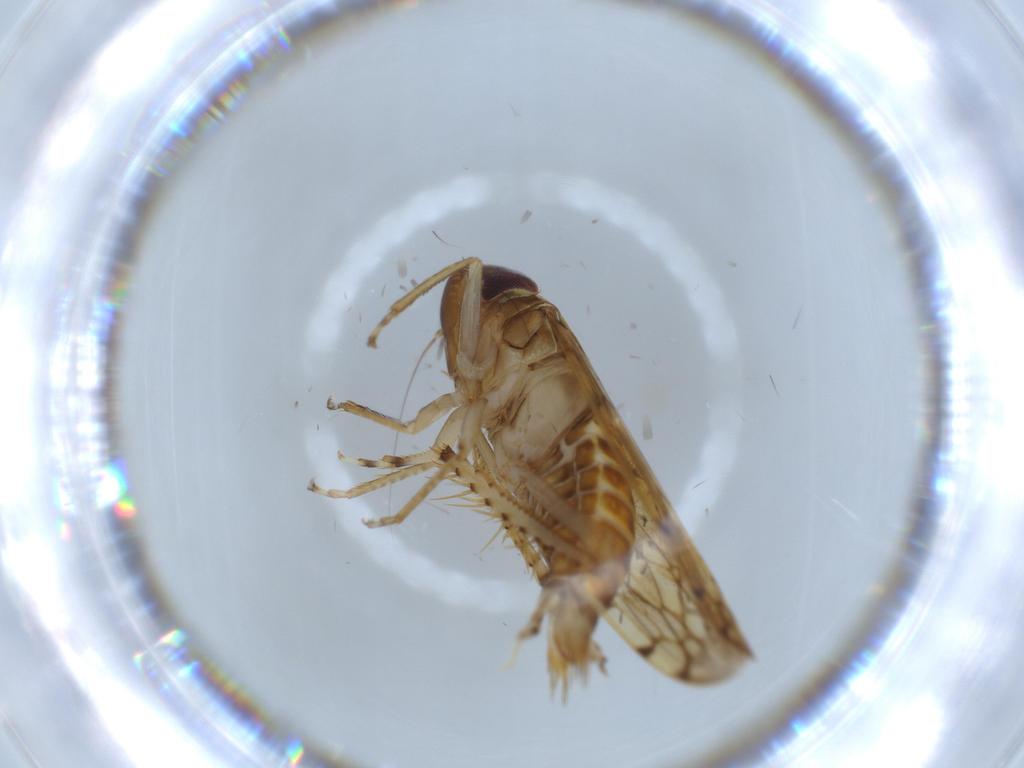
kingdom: Animalia
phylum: Arthropoda
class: Insecta
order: Hemiptera
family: Cicadellidae
